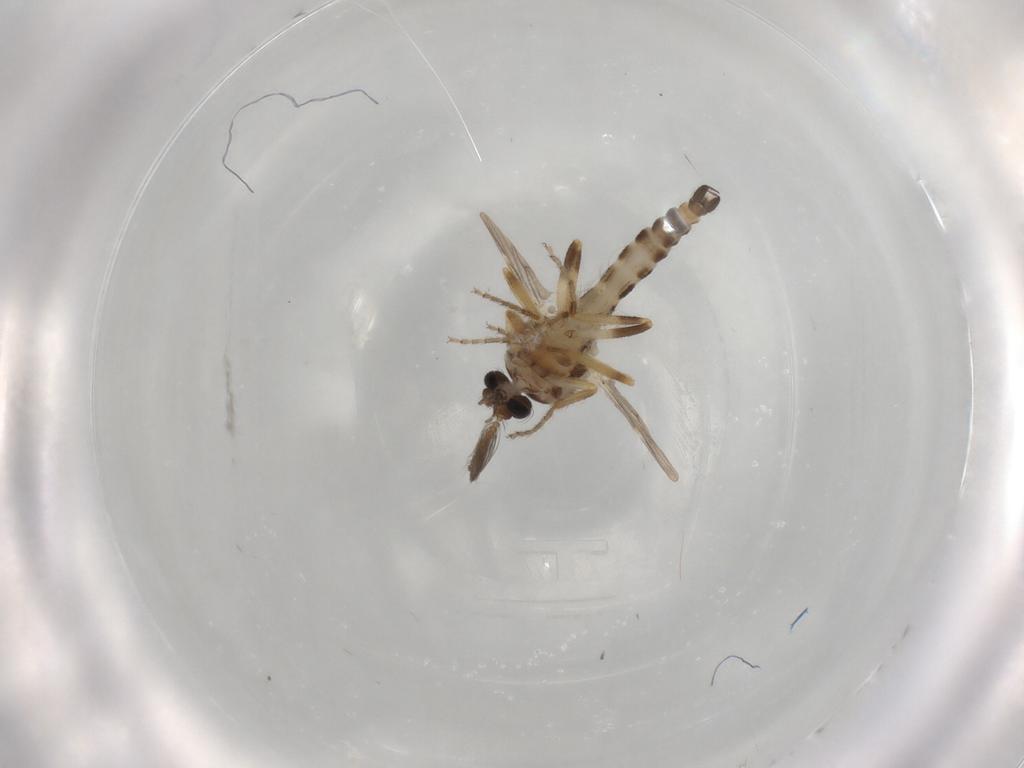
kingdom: Animalia
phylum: Arthropoda
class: Insecta
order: Diptera
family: Ceratopogonidae
